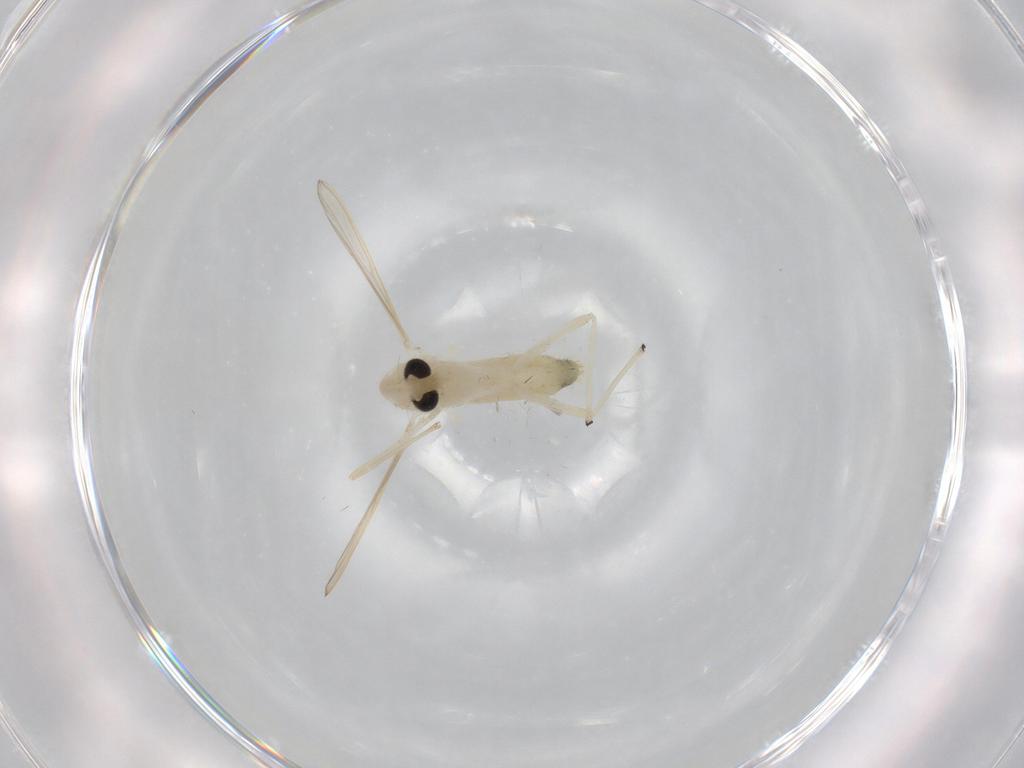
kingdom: Animalia
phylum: Arthropoda
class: Insecta
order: Diptera
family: Chironomidae
